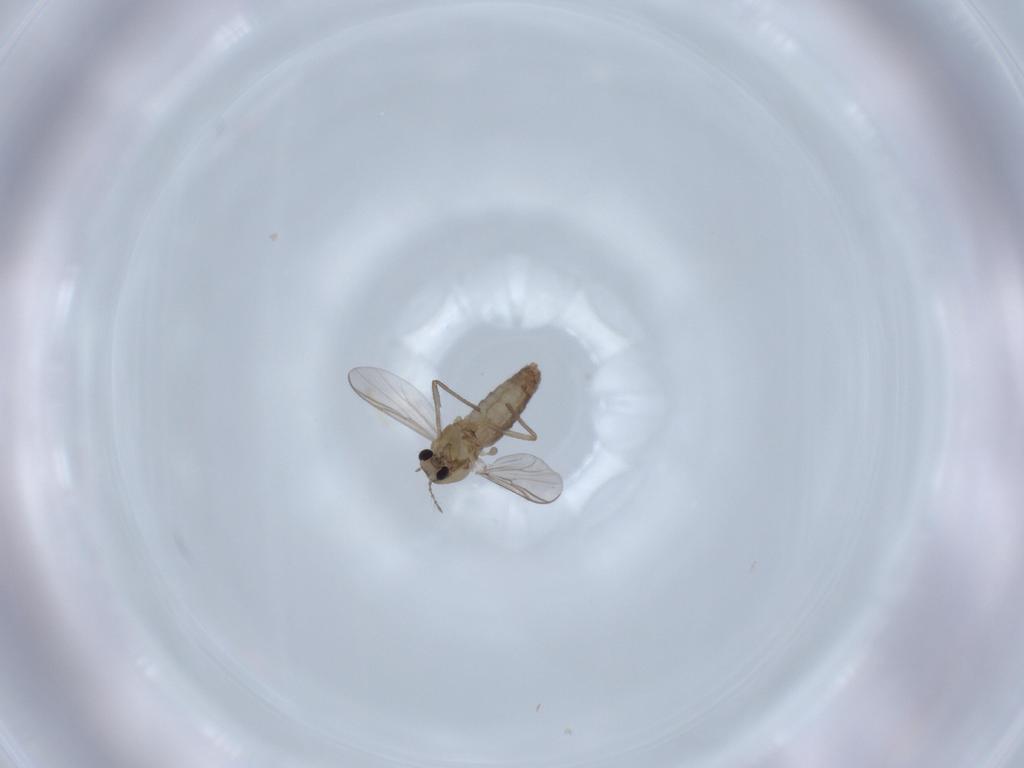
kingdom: Animalia
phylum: Arthropoda
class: Insecta
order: Diptera
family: Chironomidae
